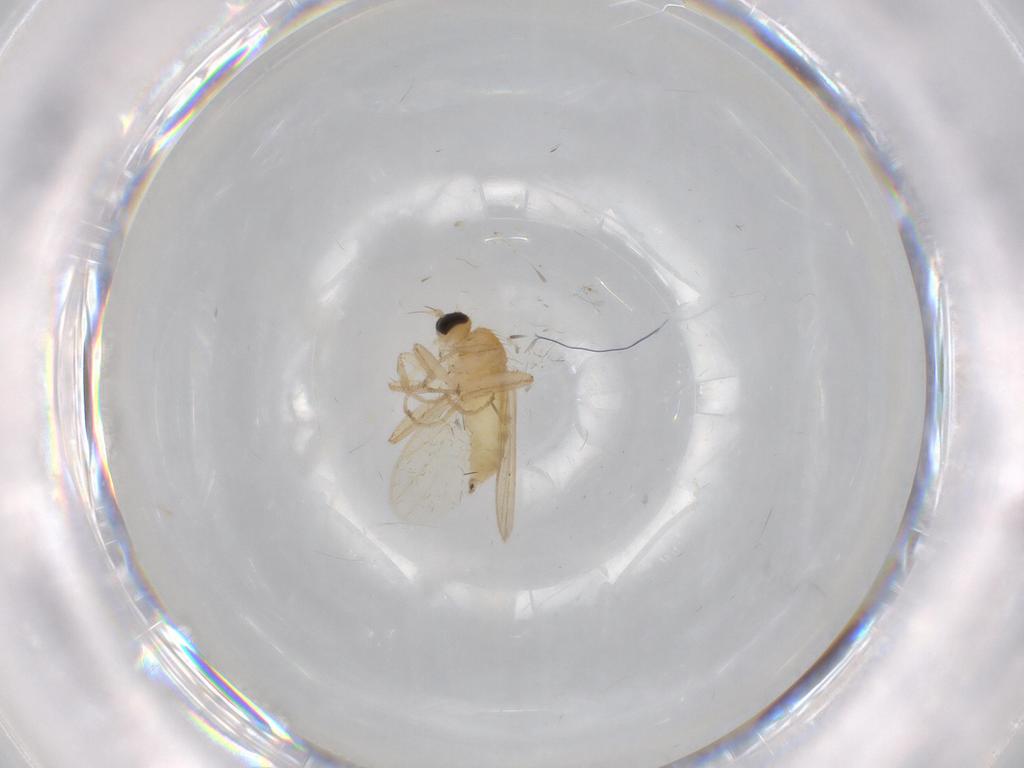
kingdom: Animalia
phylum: Arthropoda
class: Insecta
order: Diptera
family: Hybotidae
